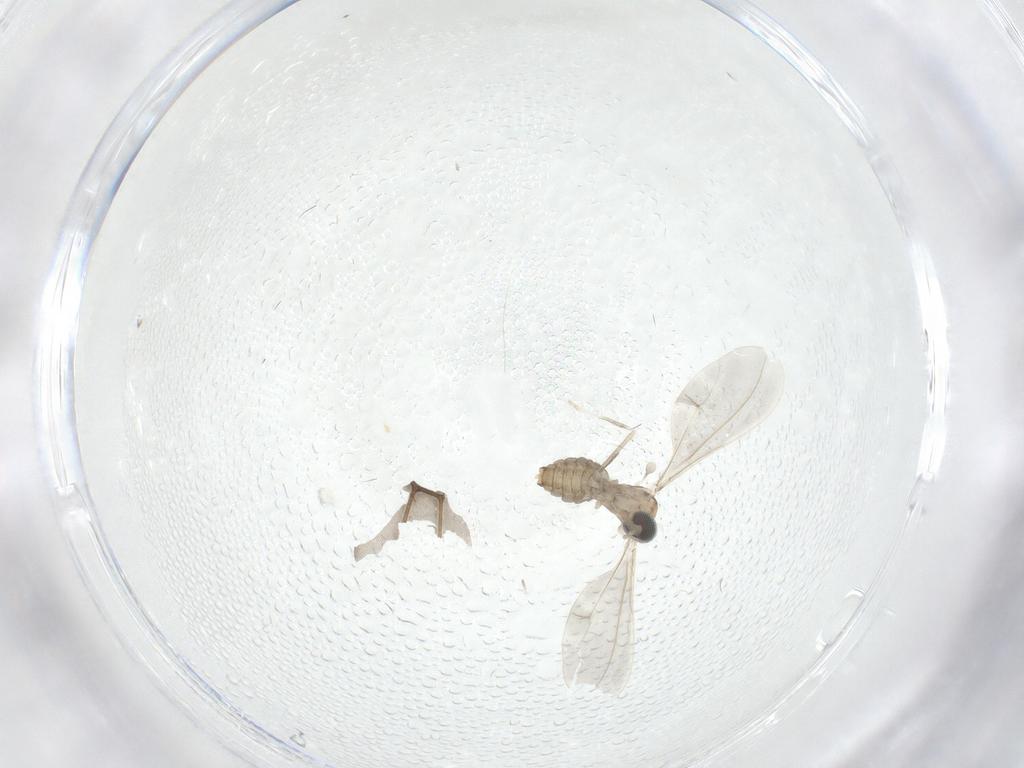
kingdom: Animalia
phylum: Arthropoda
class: Insecta
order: Diptera
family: Cecidomyiidae
